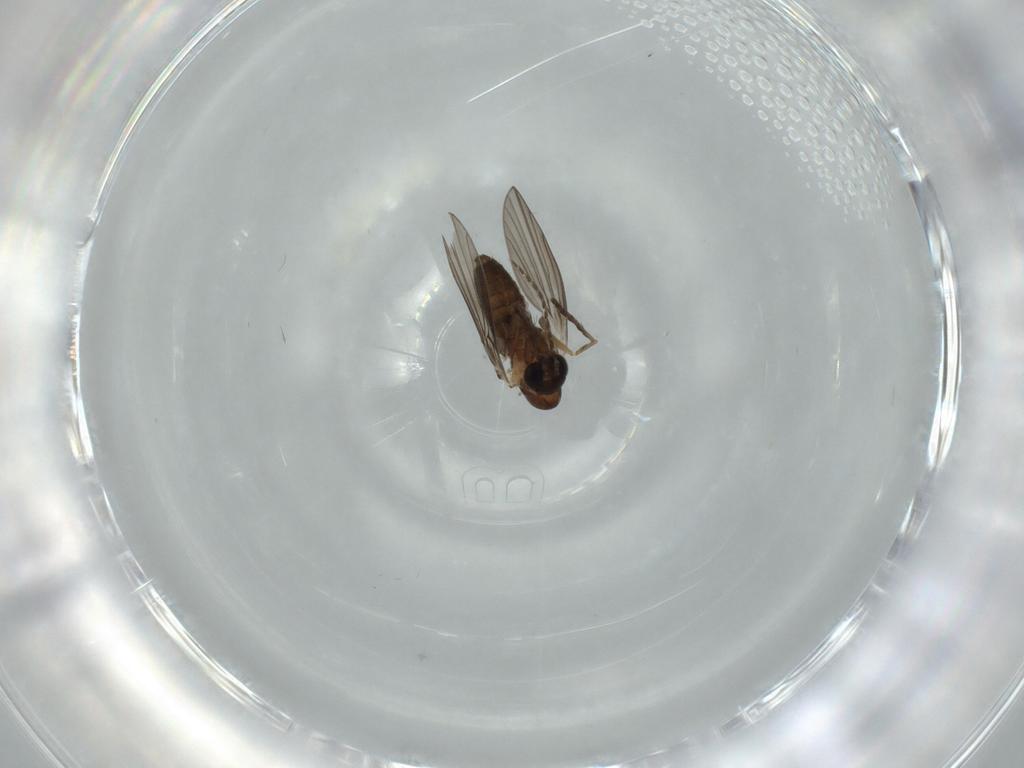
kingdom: Animalia
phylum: Arthropoda
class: Insecta
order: Diptera
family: Psychodidae
